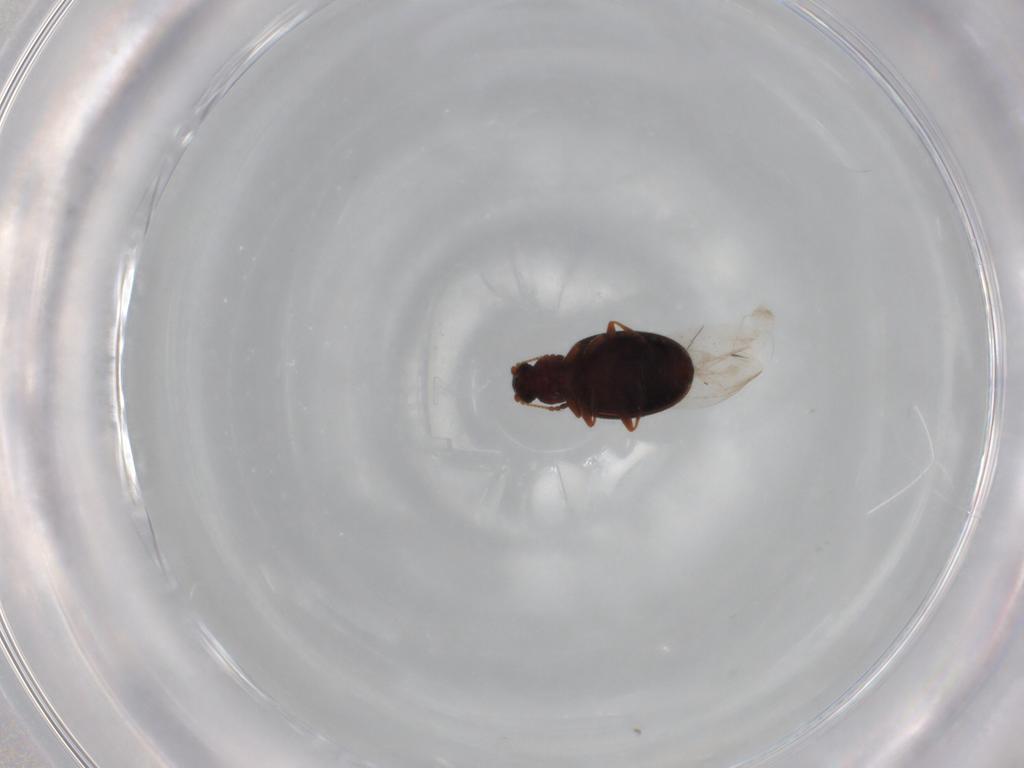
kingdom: Animalia
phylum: Arthropoda
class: Insecta
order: Coleoptera
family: Latridiidae
